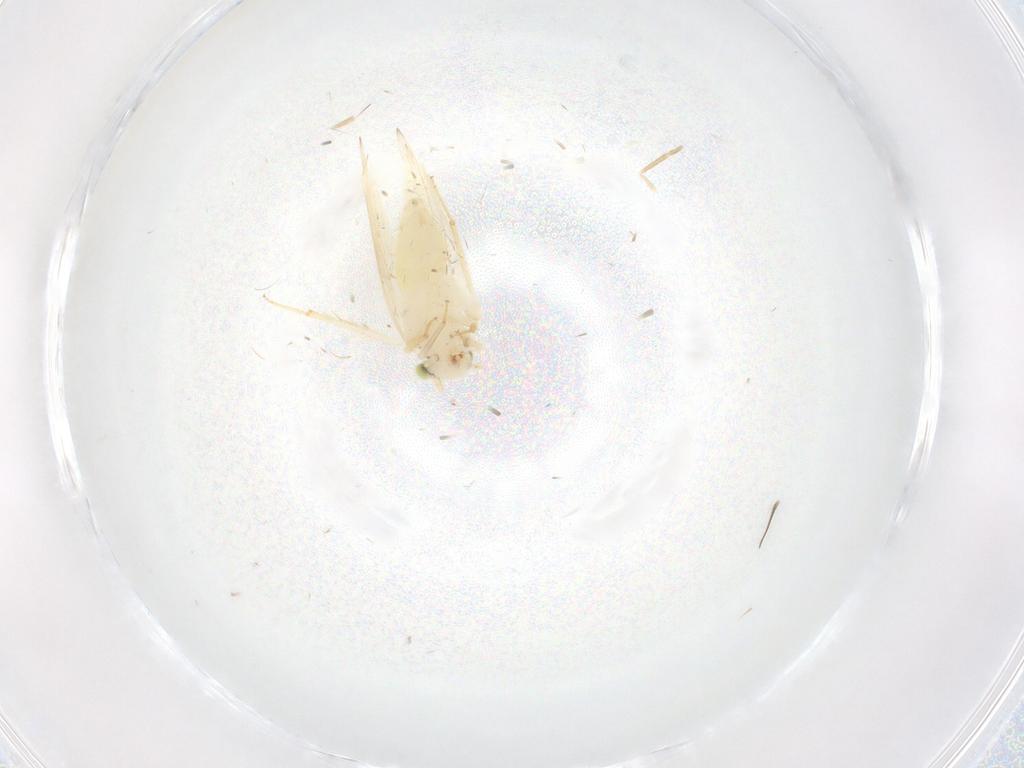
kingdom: Animalia
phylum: Arthropoda
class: Insecta
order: Psocodea
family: Lepidopsocidae
